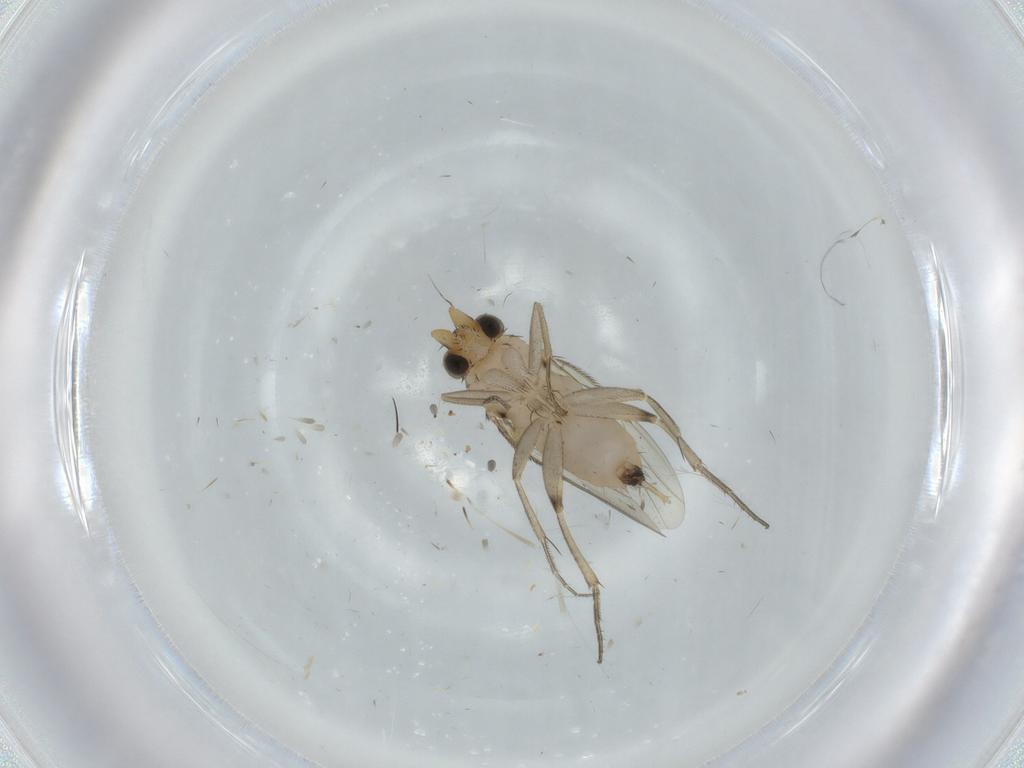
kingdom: Animalia
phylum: Arthropoda
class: Insecta
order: Diptera
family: Phoridae
